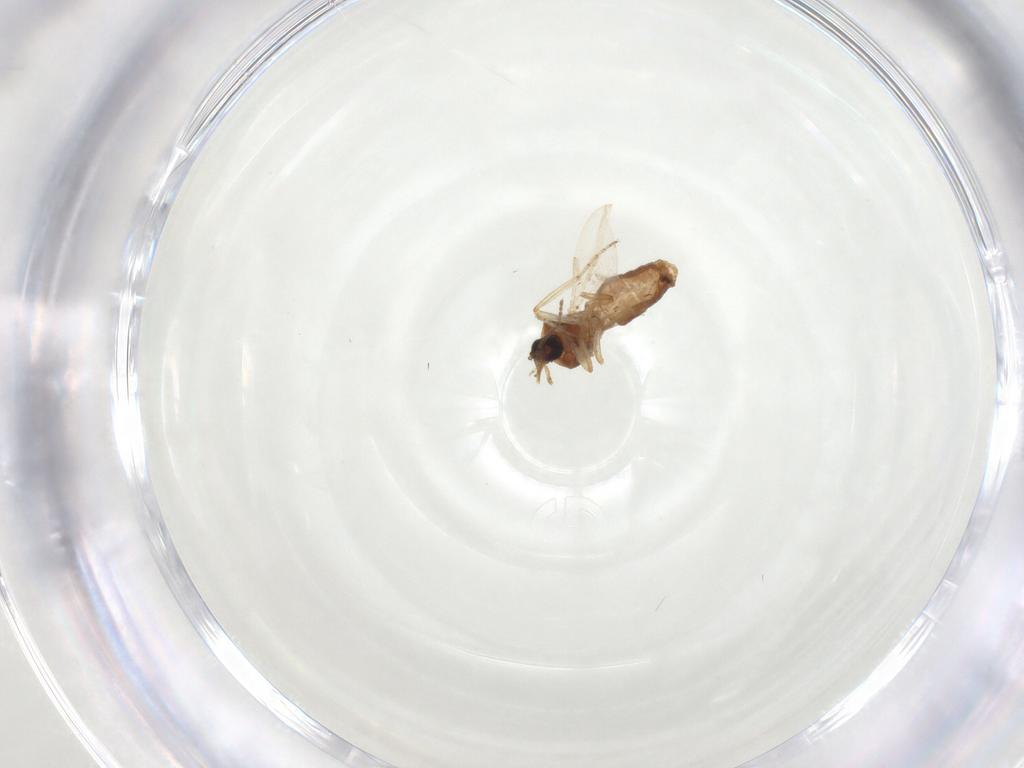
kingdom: Animalia
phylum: Arthropoda
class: Insecta
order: Diptera
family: Ceratopogonidae
